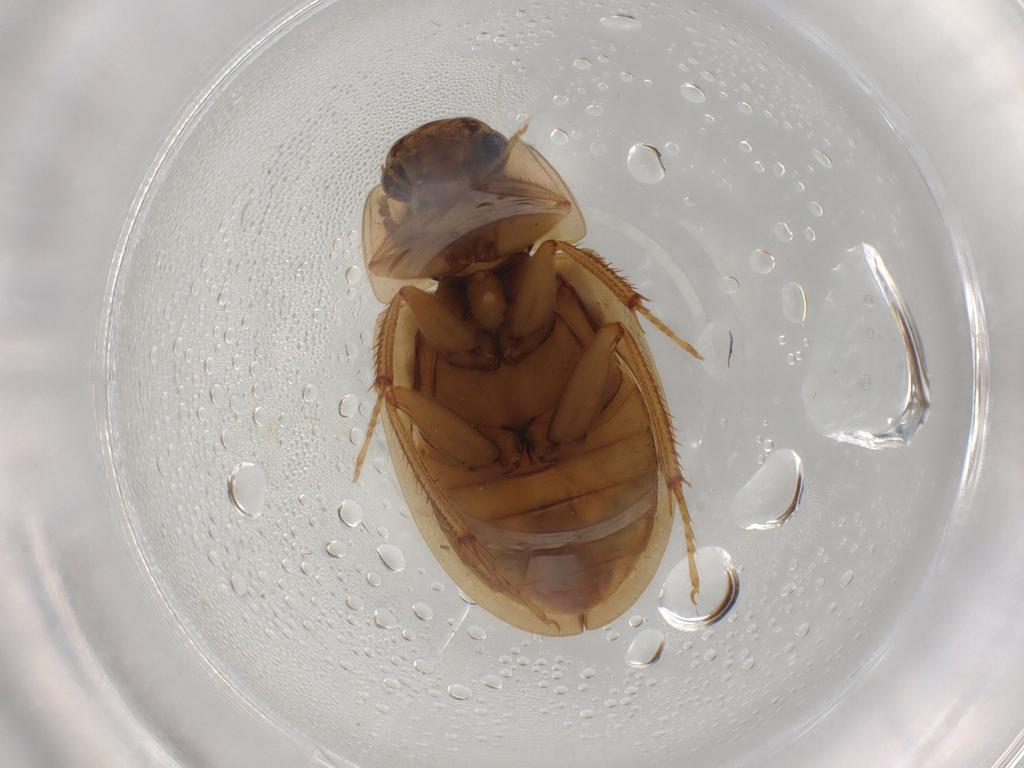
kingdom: Animalia
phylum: Arthropoda
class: Insecta
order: Coleoptera
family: Hydrophilidae
